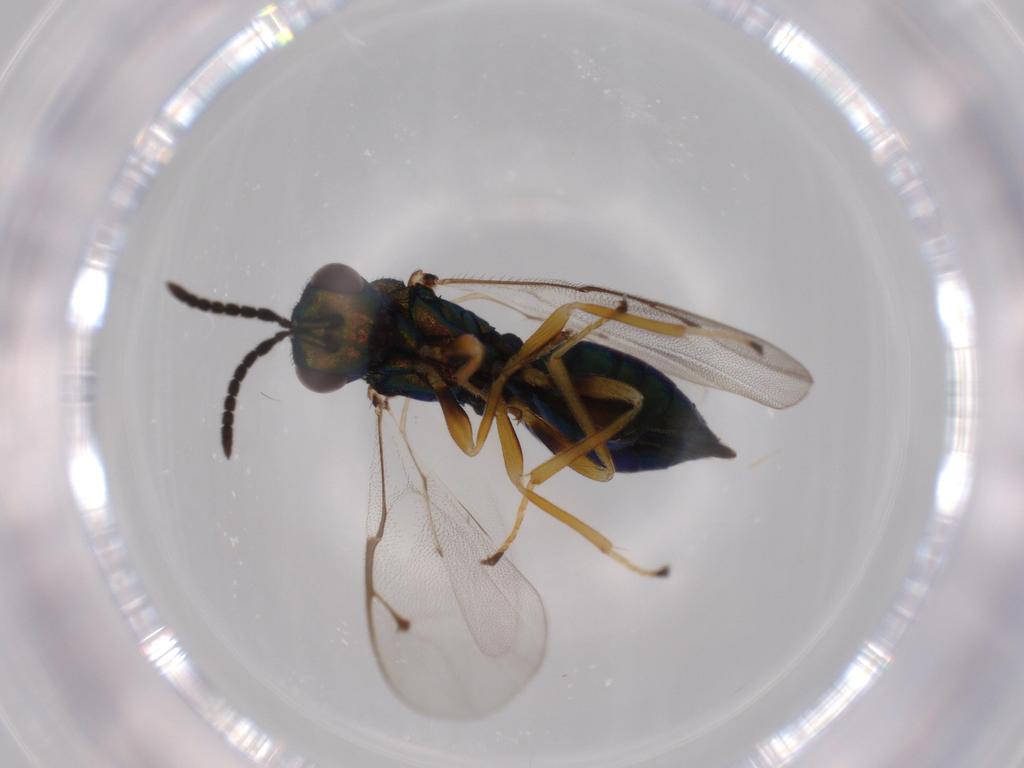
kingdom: Animalia
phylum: Arthropoda
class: Insecta
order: Hymenoptera
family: Pteromalidae
